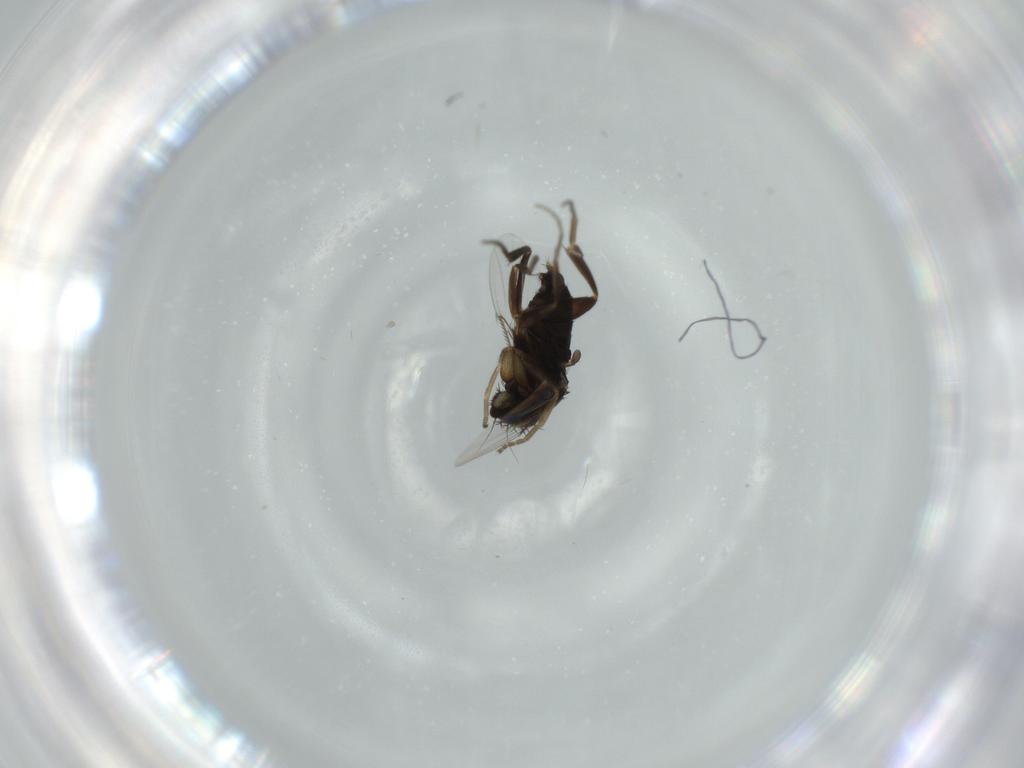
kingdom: Animalia
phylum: Arthropoda
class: Insecta
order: Diptera
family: Phoridae
